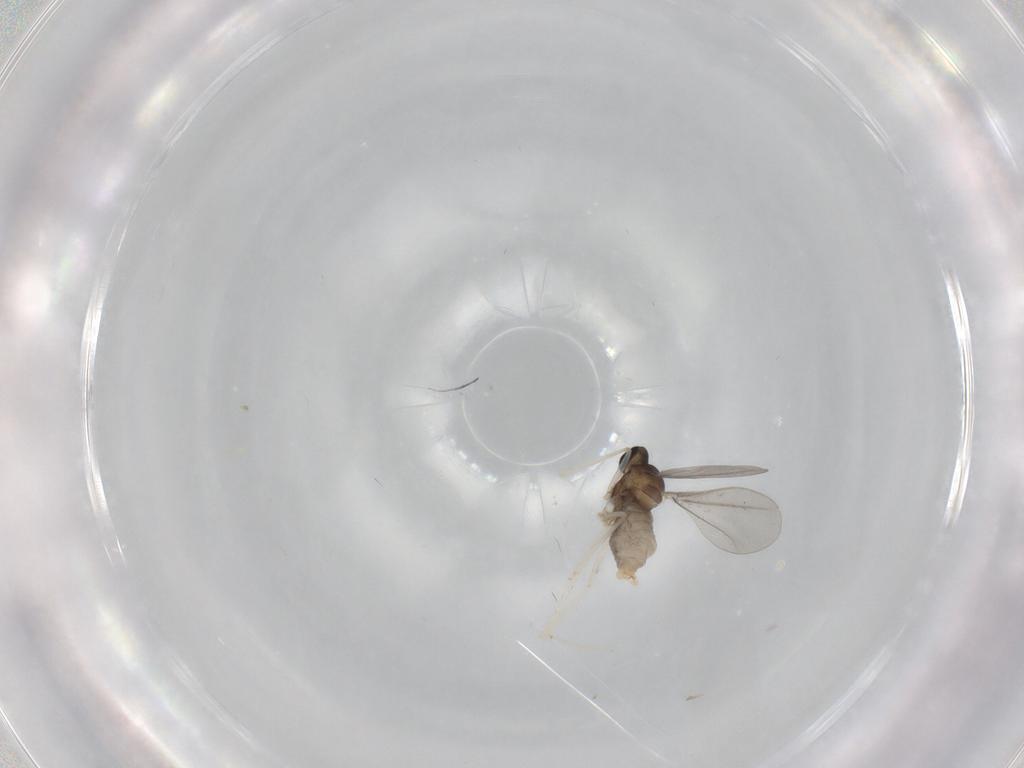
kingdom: Animalia
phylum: Arthropoda
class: Insecta
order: Diptera
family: Cecidomyiidae
